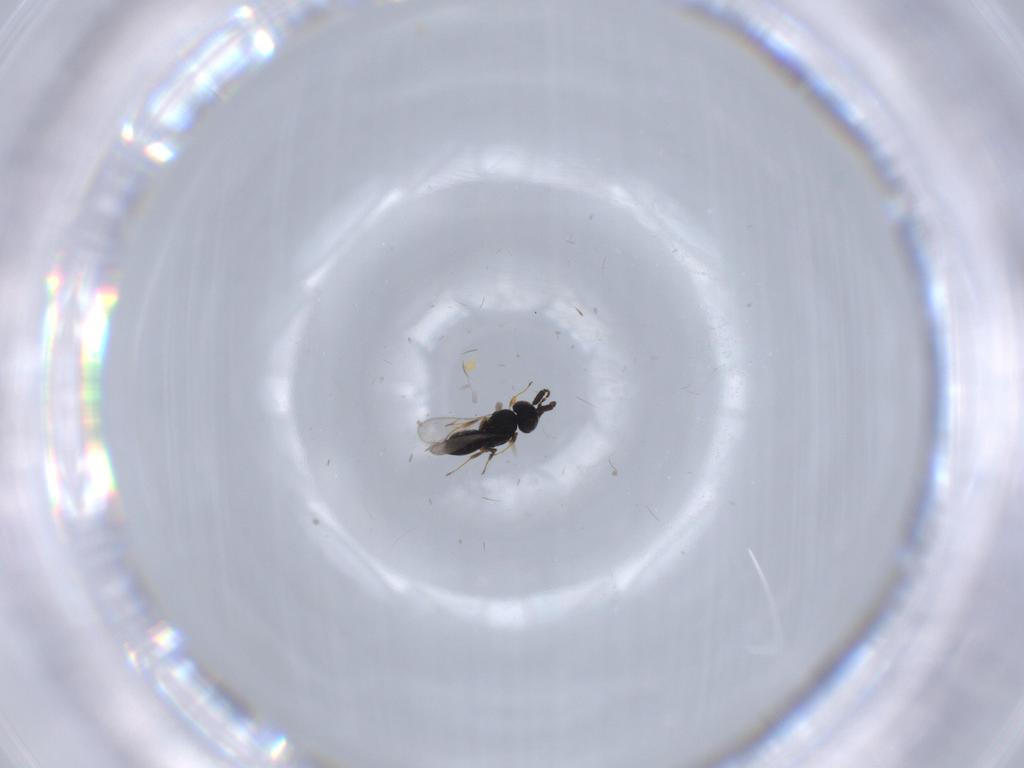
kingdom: Animalia
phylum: Arthropoda
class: Insecta
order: Hymenoptera
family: Scelionidae
